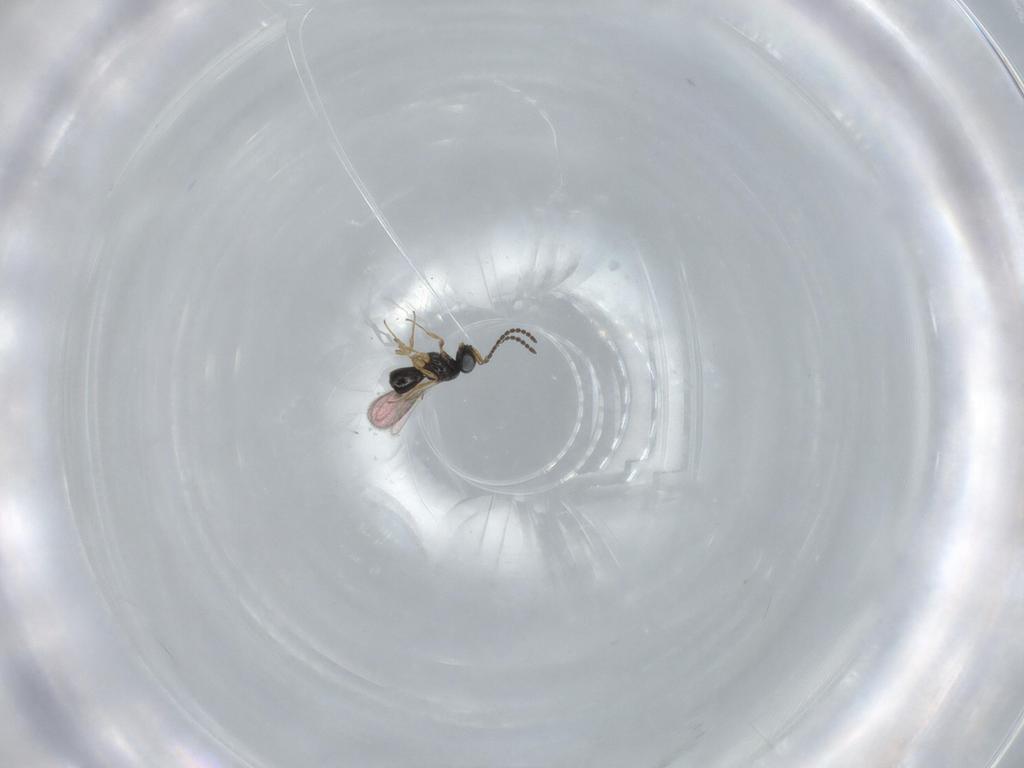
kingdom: Animalia
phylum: Arthropoda
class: Insecta
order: Hymenoptera
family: Scelionidae
